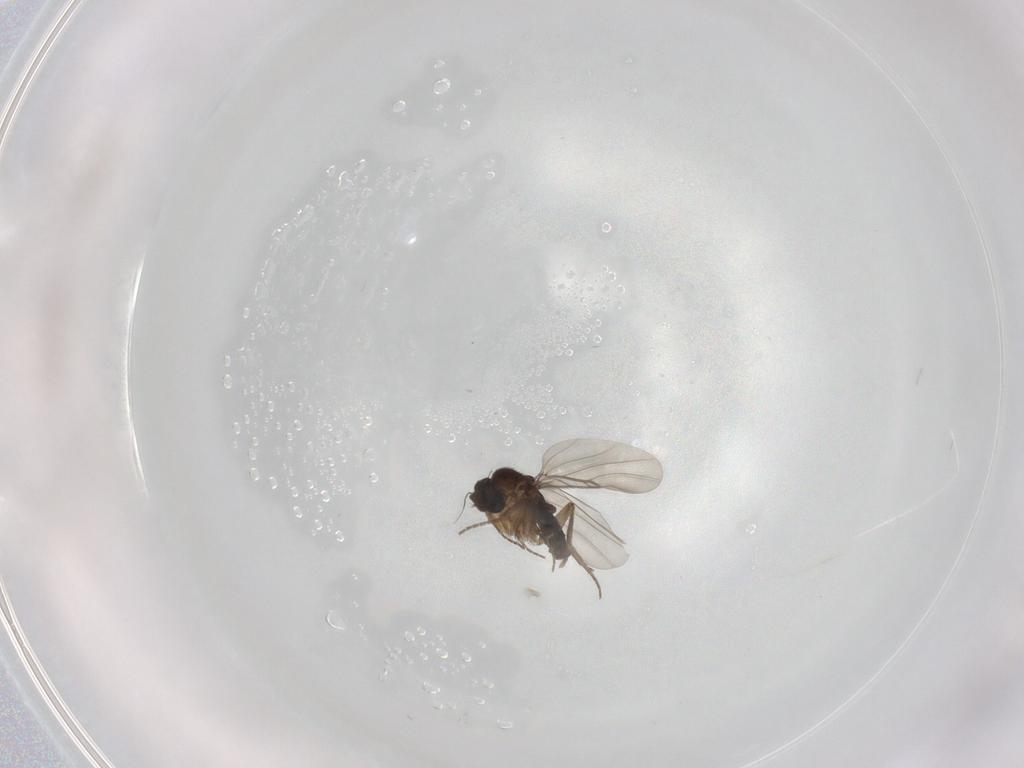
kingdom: Animalia
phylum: Arthropoda
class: Insecta
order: Diptera
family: Phoridae
